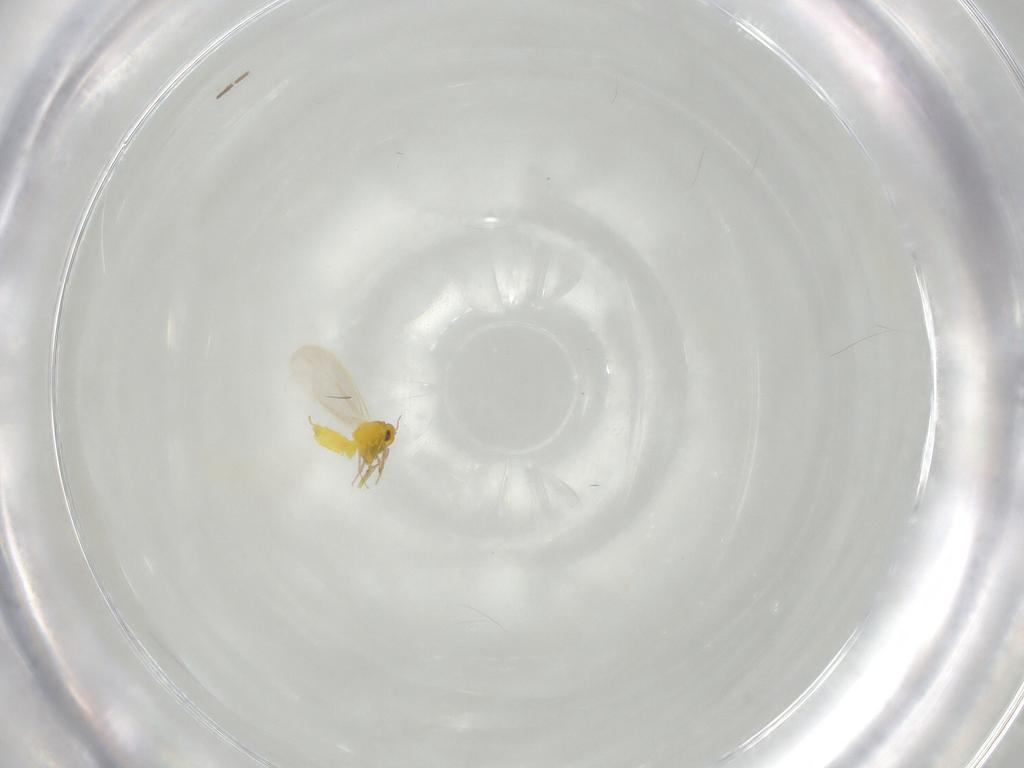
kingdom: Animalia
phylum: Arthropoda
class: Insecta
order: Hemiptera
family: Aleyrodidae
